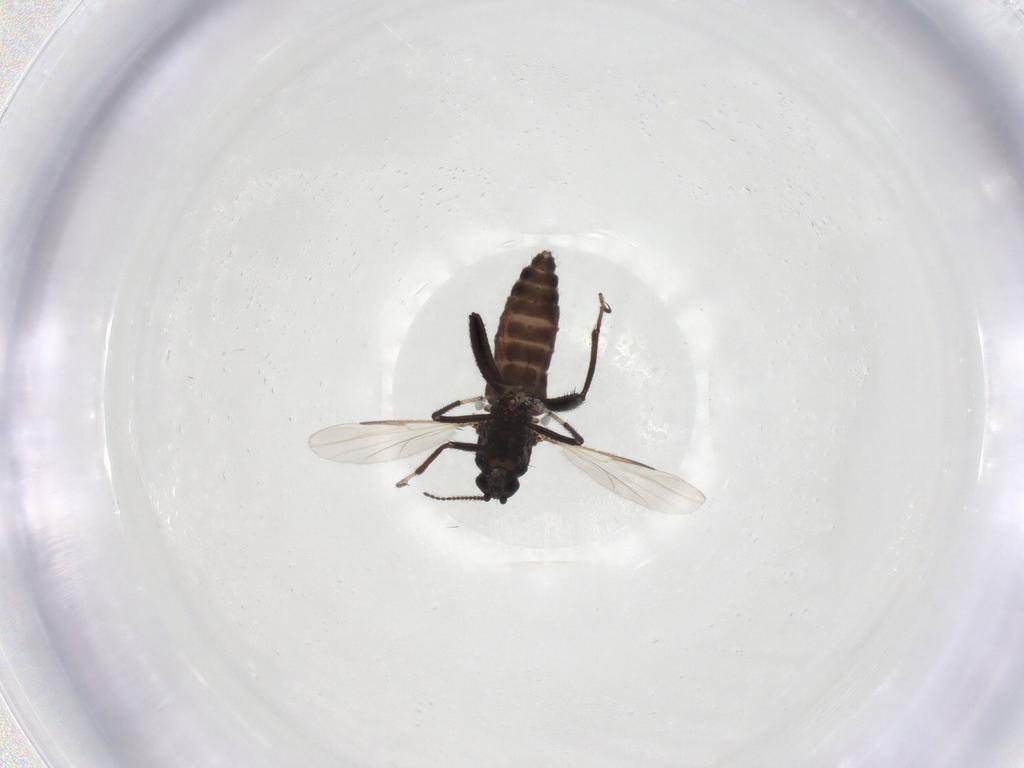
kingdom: Animalia
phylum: Arthropoda
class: Insecta
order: Diptera
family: Ceratopogonidae
